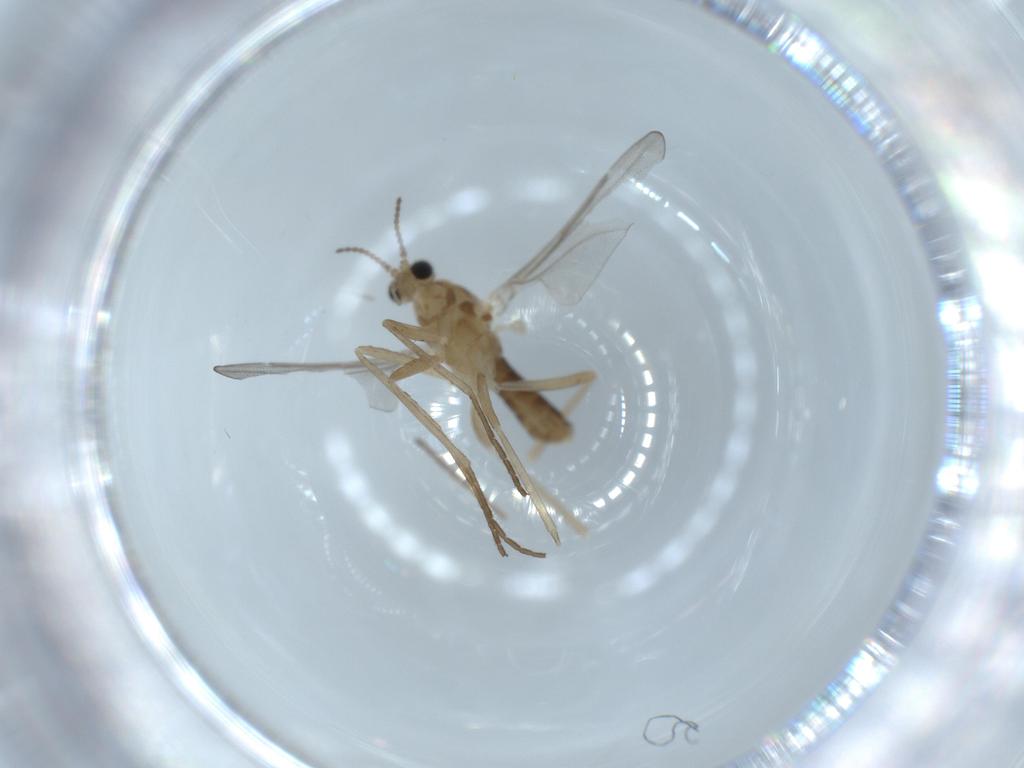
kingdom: Animalia
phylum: Arthropoda
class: Insecta
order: Diptera
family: Cecidomyiidae
